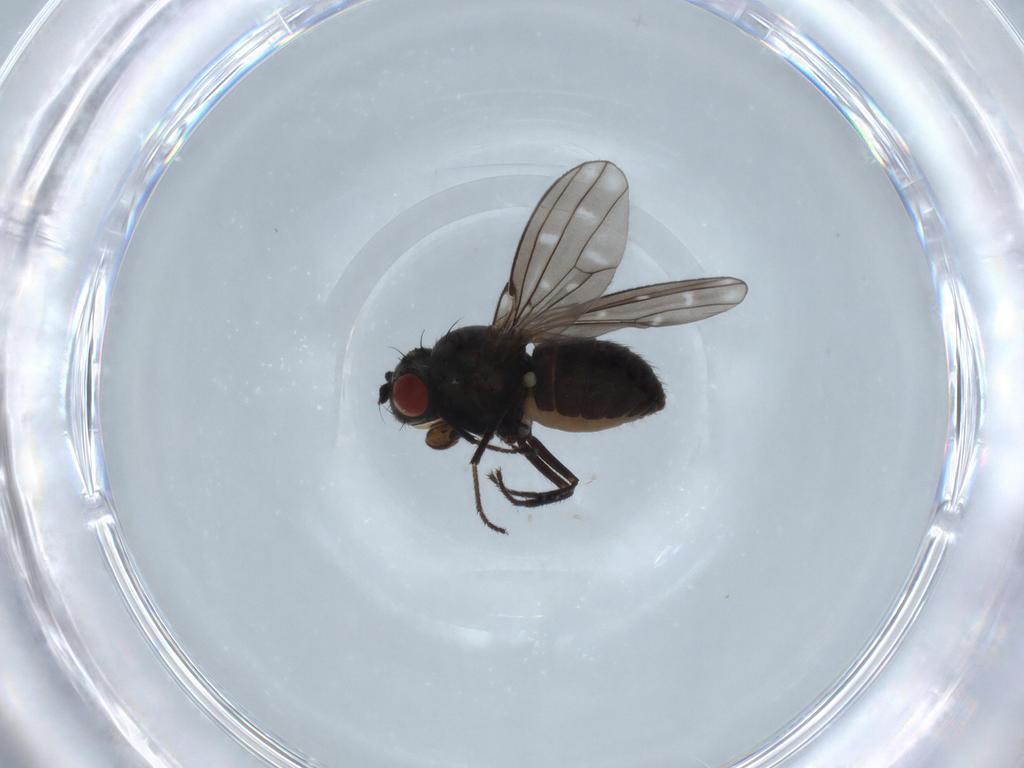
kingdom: Animalia
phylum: Arthropoda
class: Insecta
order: Diptera
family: Ephydridae
